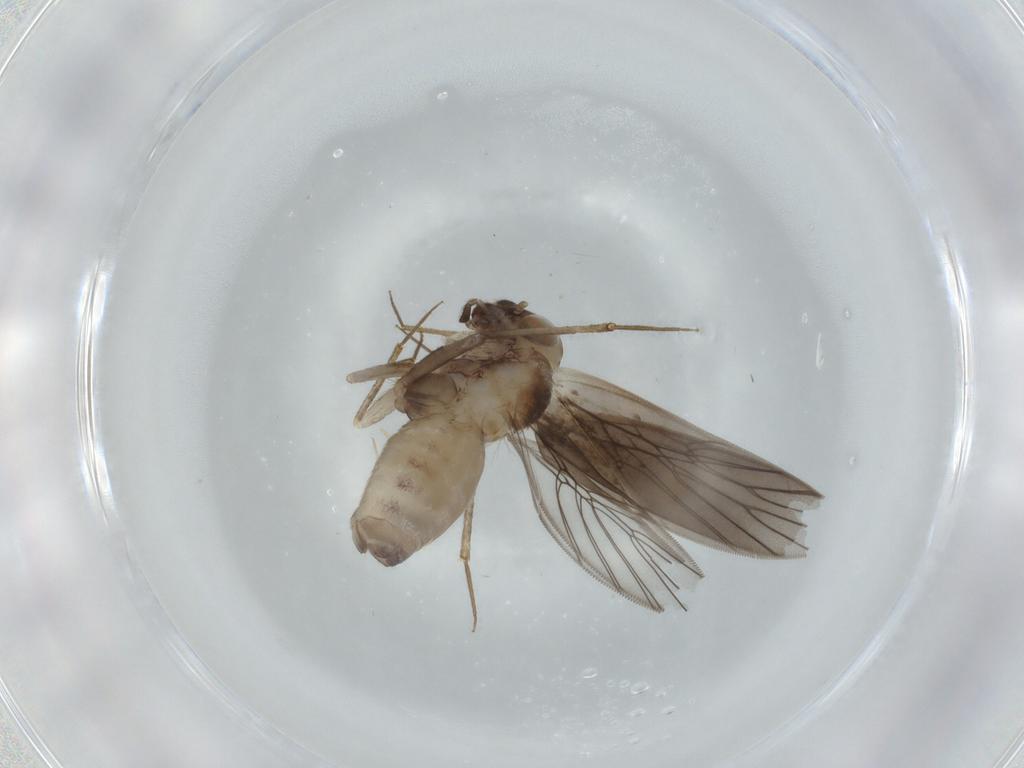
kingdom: Animalia
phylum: Arthropoda
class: Insecta
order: Psocodea
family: Lepidopsocidae
